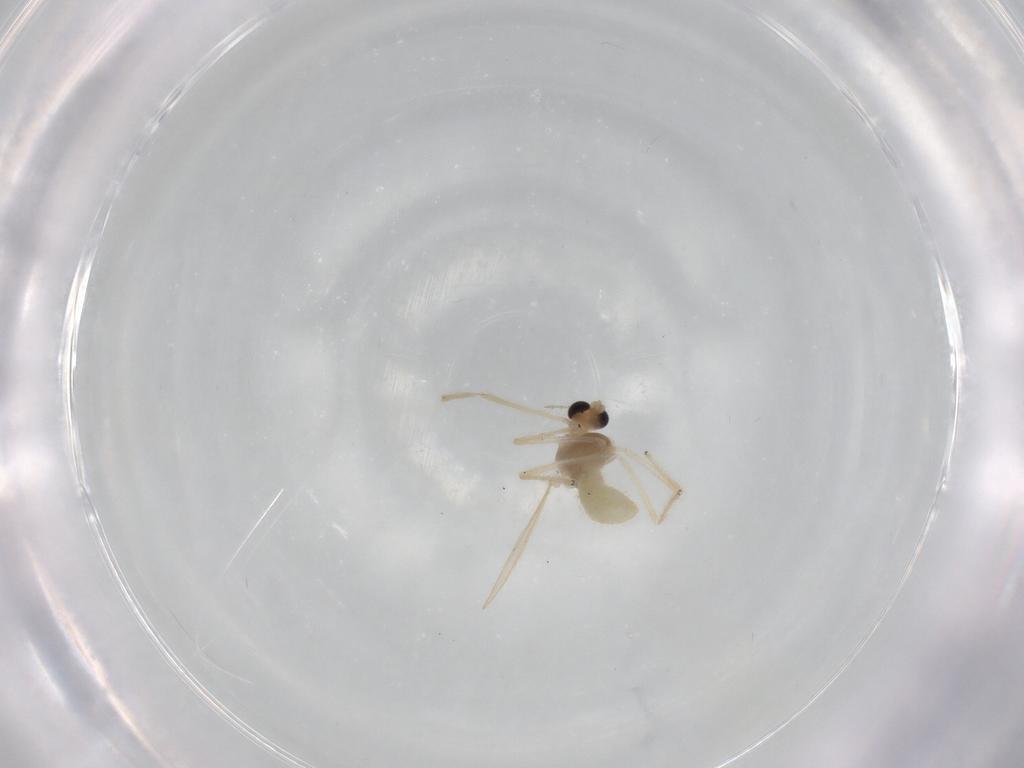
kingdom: Animalia
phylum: Arthropoda
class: Insecta
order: Diptera
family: Chironomidae
